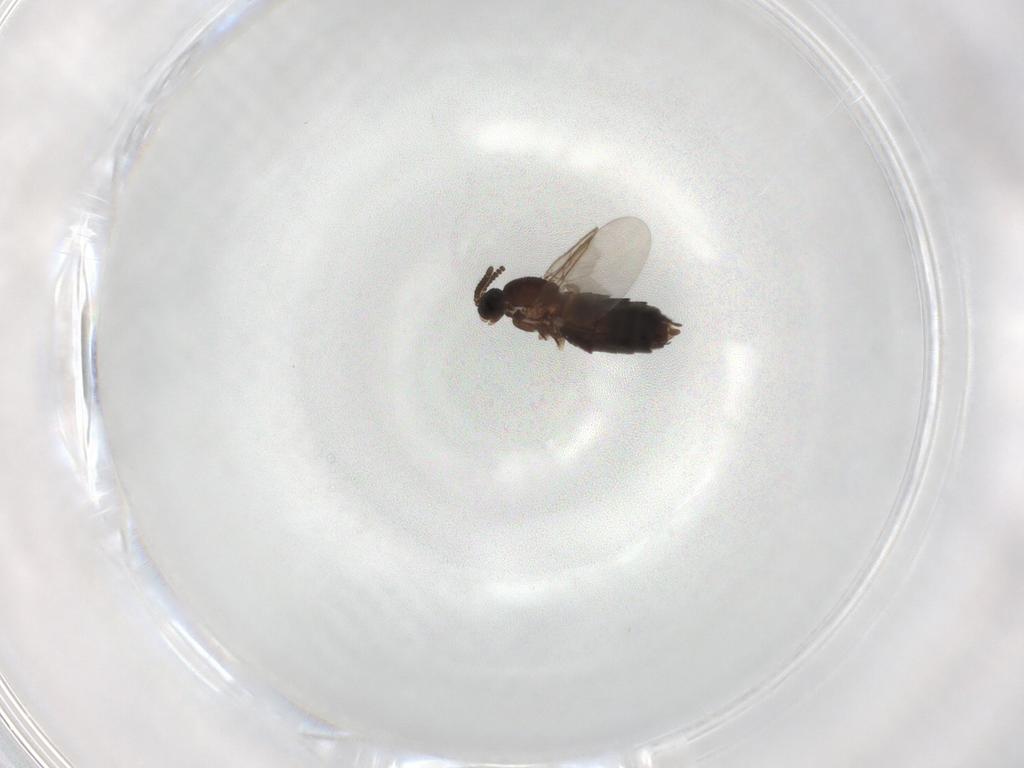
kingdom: Animalia
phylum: Arthropoda
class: Insecta
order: Diptera
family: Scatopsidae
